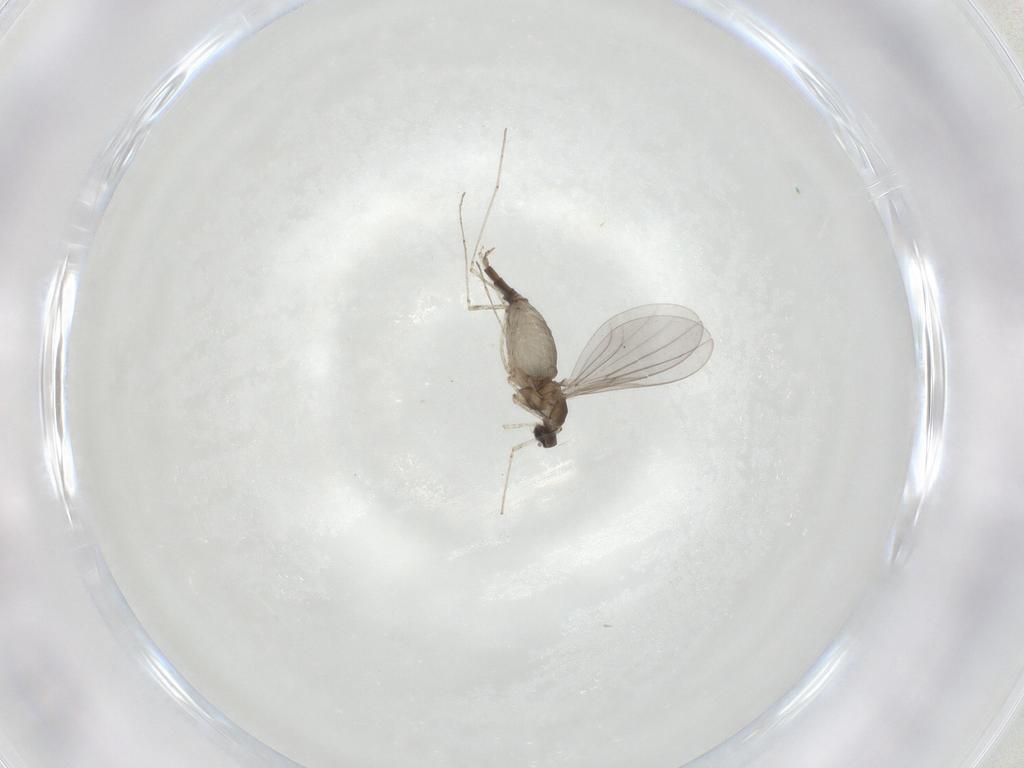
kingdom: Animalia
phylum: Arthropoda
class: Insecta
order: Diptera
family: Cecidomyiidae
